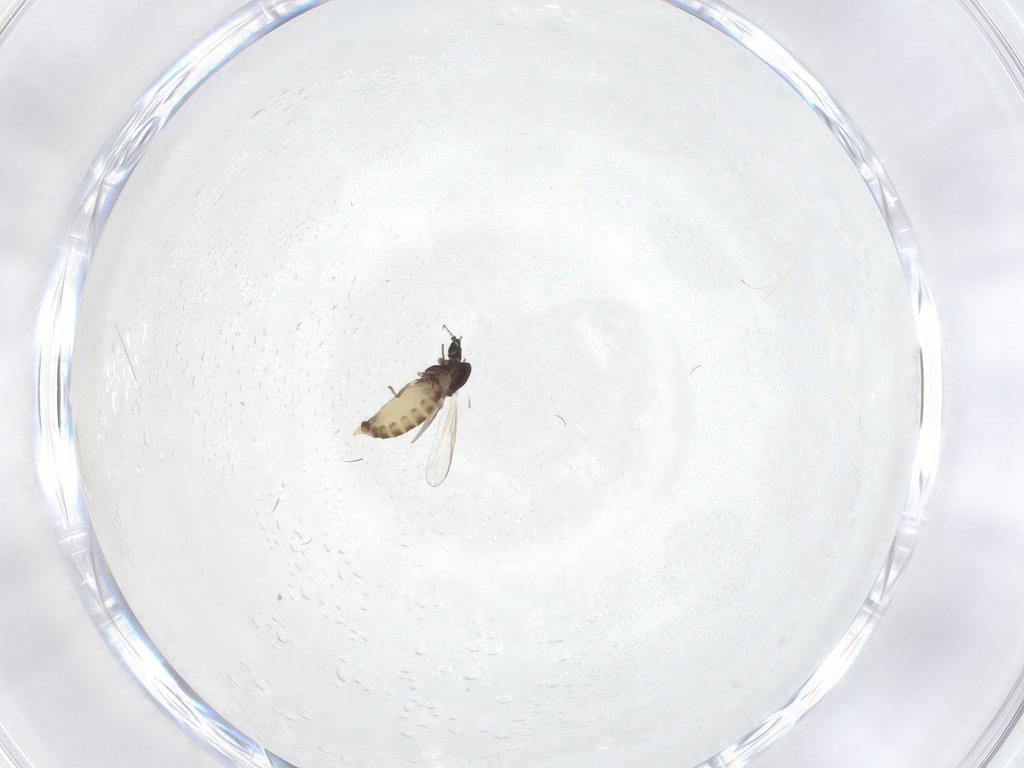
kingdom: Animalia
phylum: Arthropoda
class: Insecta
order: Diptera
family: Chironomidae
